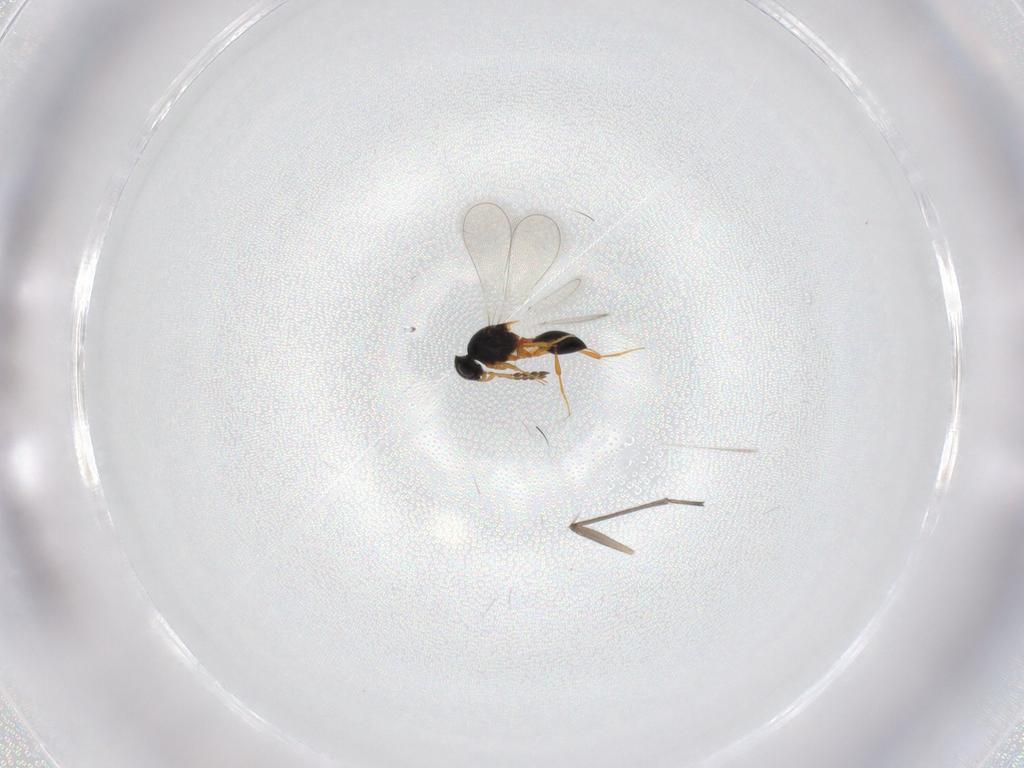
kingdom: Animalia
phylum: Arthropoda
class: Insecta
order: Hymenoptera
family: Platygastridae
